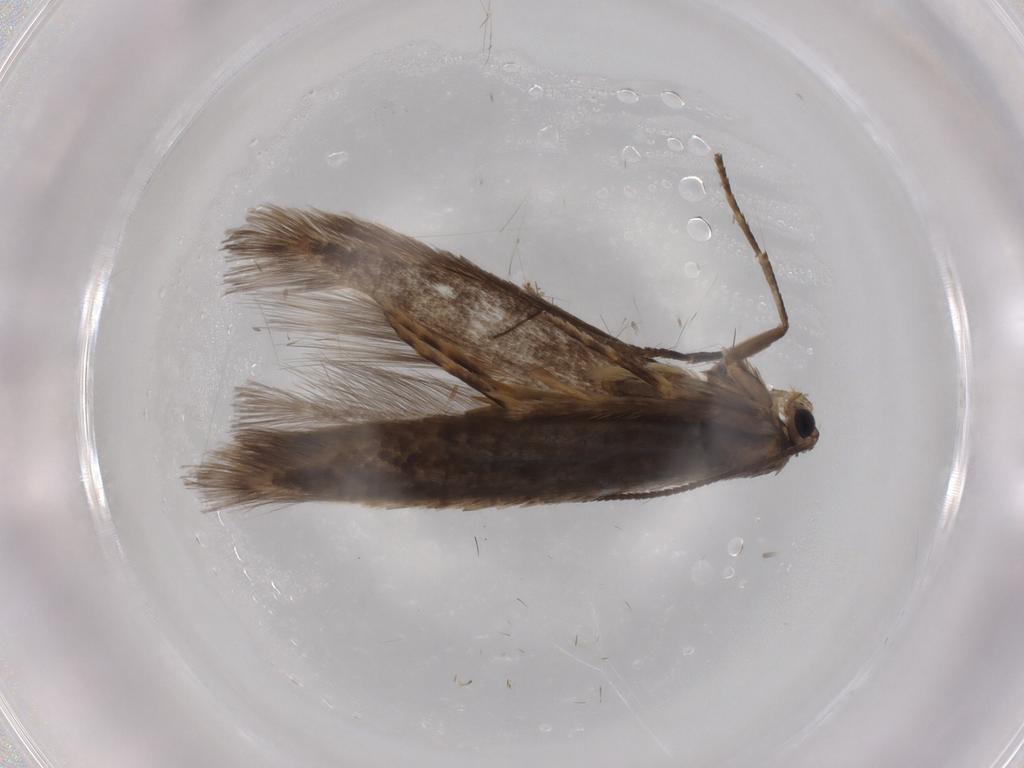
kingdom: Animalia
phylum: Arthropoda
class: Insecta
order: Lepidoptera
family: Nepticulidae
